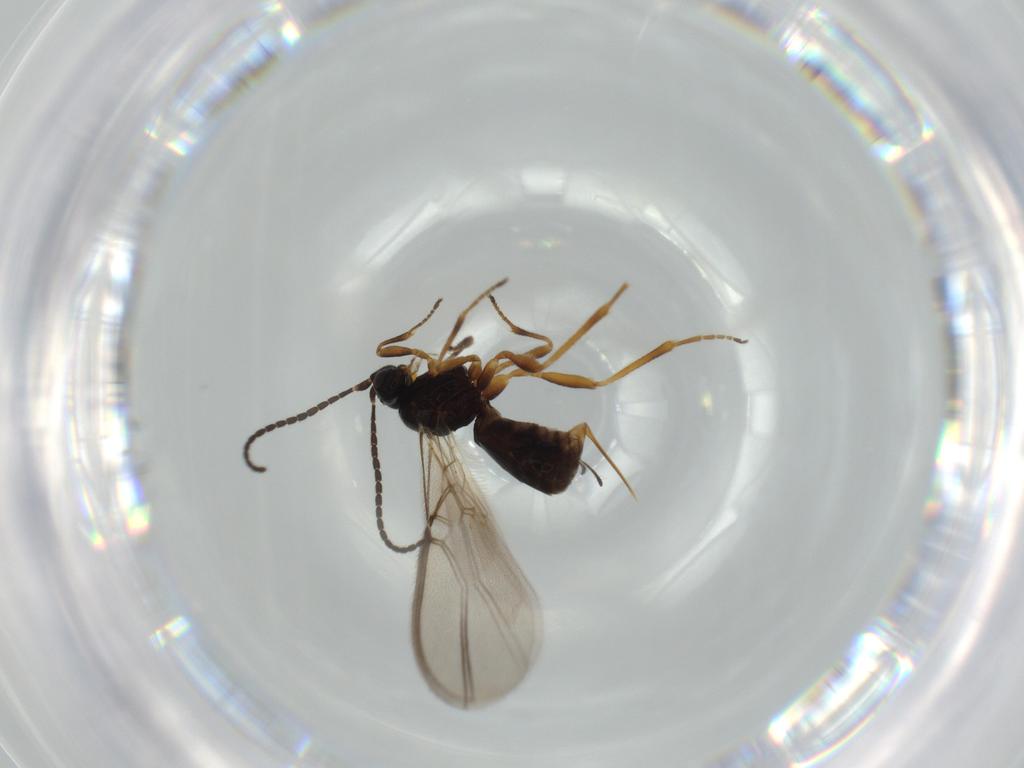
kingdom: Animalia
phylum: Arthropoda
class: Insecta
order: Hymenoptera
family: Braconidae
